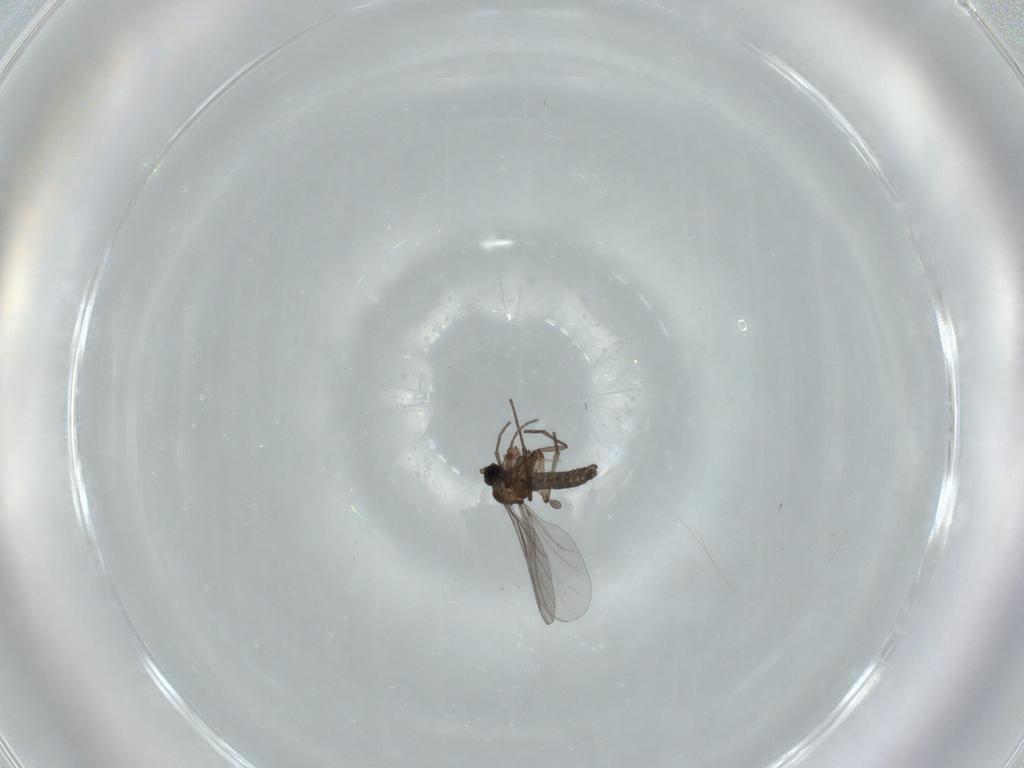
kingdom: Animalia
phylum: Arthropoda
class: Insecta
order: Diptera
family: Sciaridae
